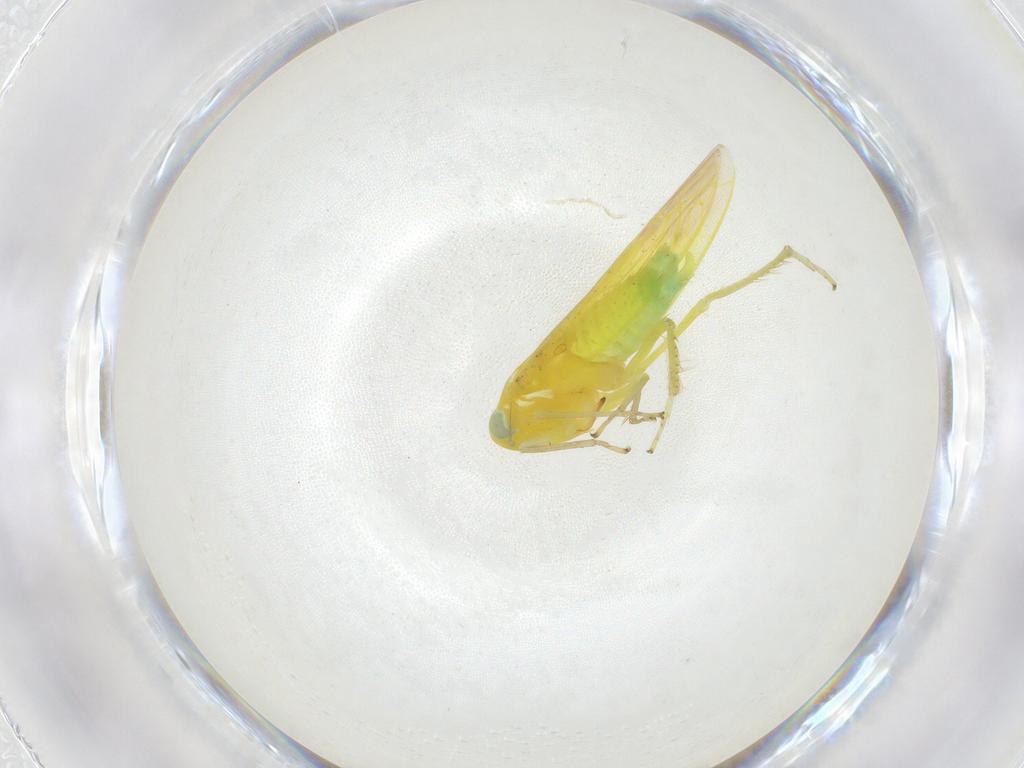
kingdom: Animalia
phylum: Arthropoda
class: Insecta
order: Hemiptera
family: Cicadellidae
